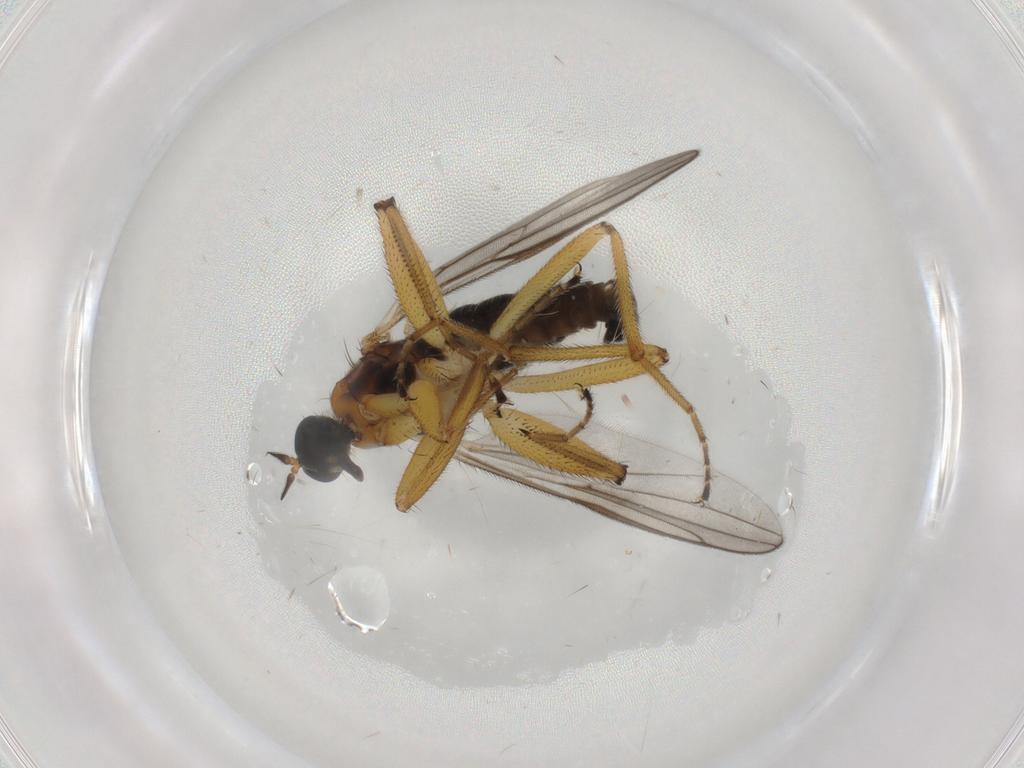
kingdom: Animalia
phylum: Arthropoda
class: Insecta
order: Diptera
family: Hybotidae
